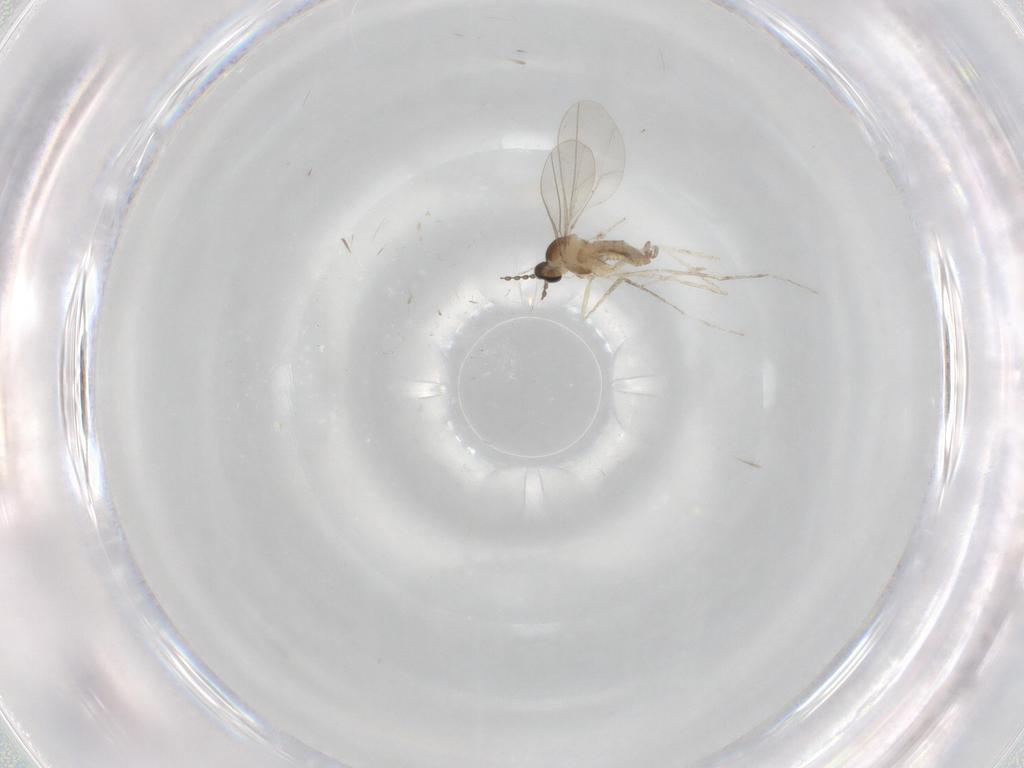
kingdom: Animalia
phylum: Arthropoda
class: Insecta
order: Diptera
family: Cecidomyiidae
